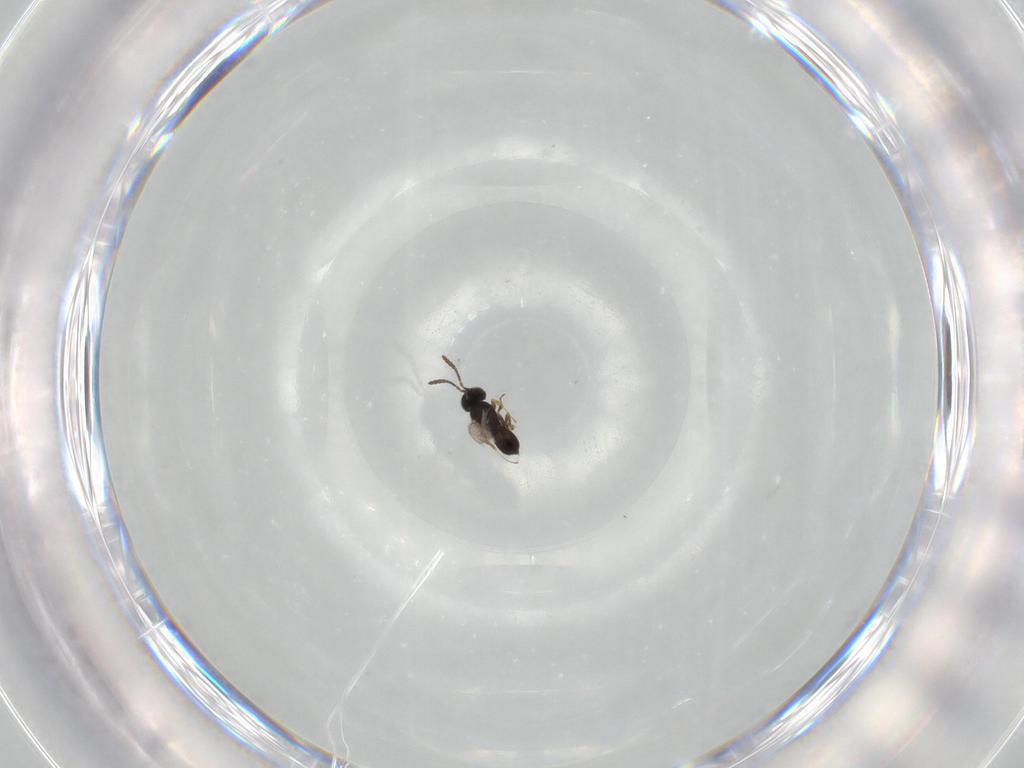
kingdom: Animalia
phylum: Arthropoda
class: Insecta
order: Hymenoptera
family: Scelionidae
